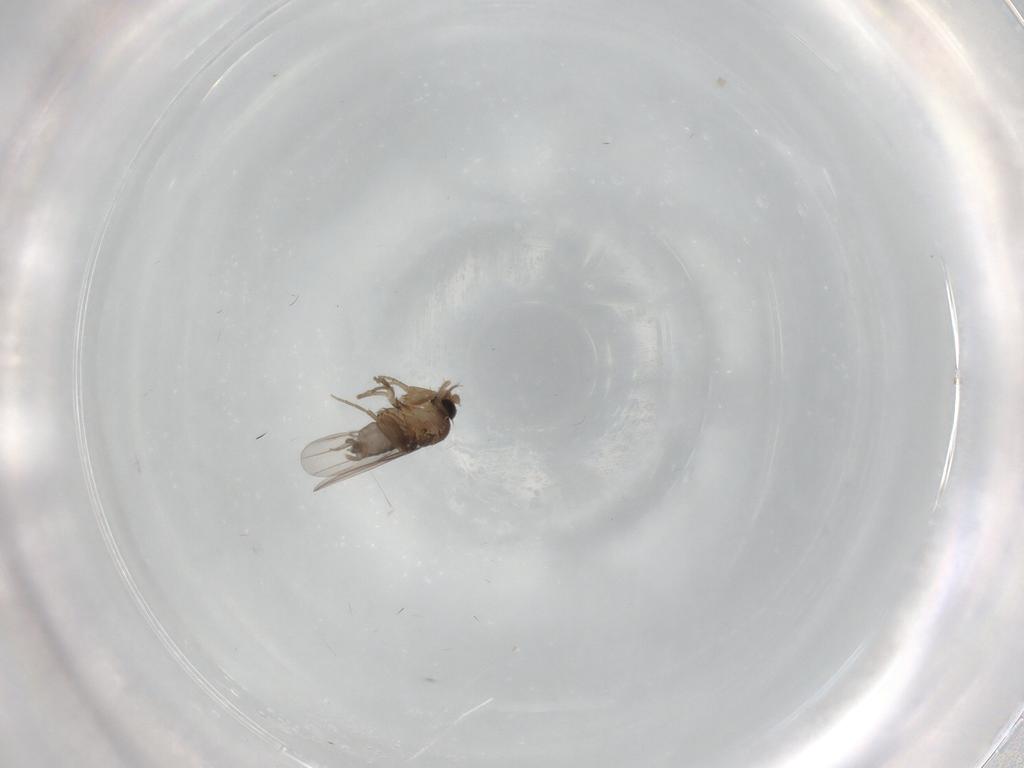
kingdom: Animalia
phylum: Arthropoda
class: Insecta
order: Diptera
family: Phoridae
